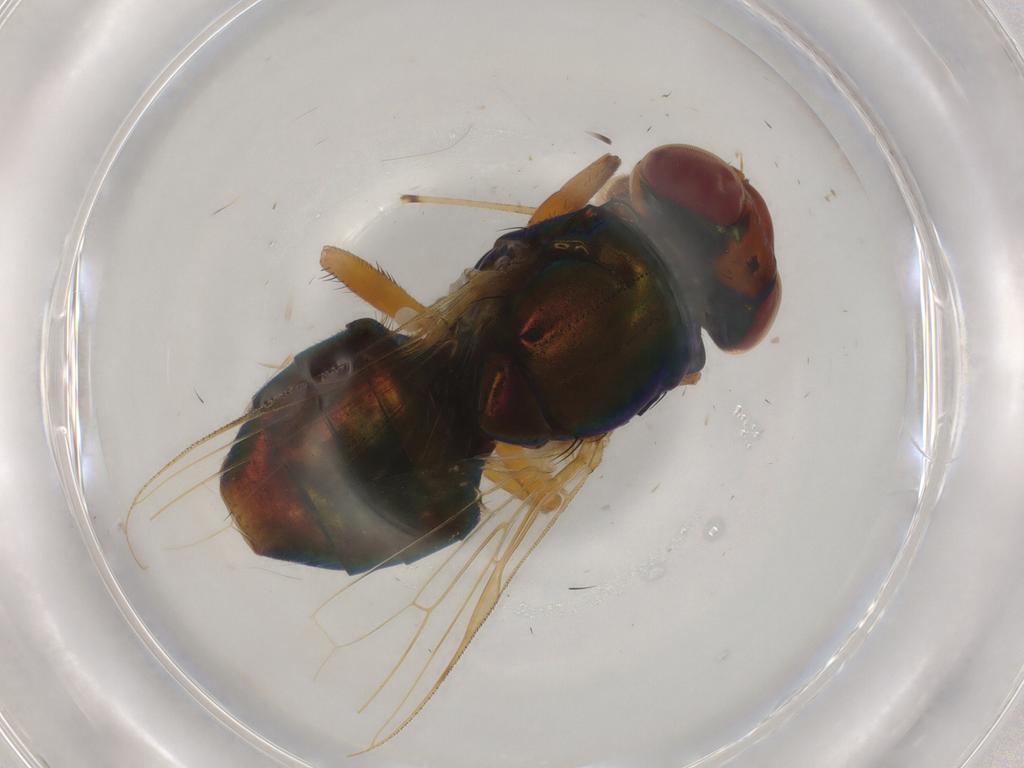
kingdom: Animalia
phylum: Arthropoda
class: Insecta
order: Diptera
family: Ulidiidae
